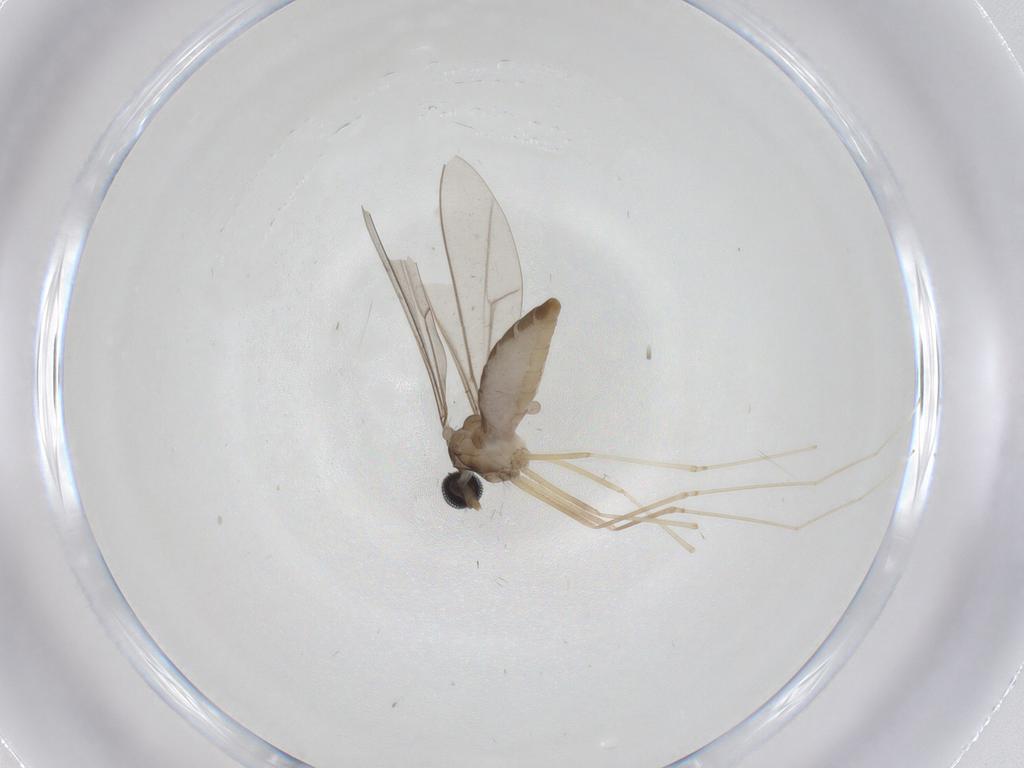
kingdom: Animalia
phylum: Arthropoda
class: Insecta
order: Diptera
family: Cecidomyiidae
